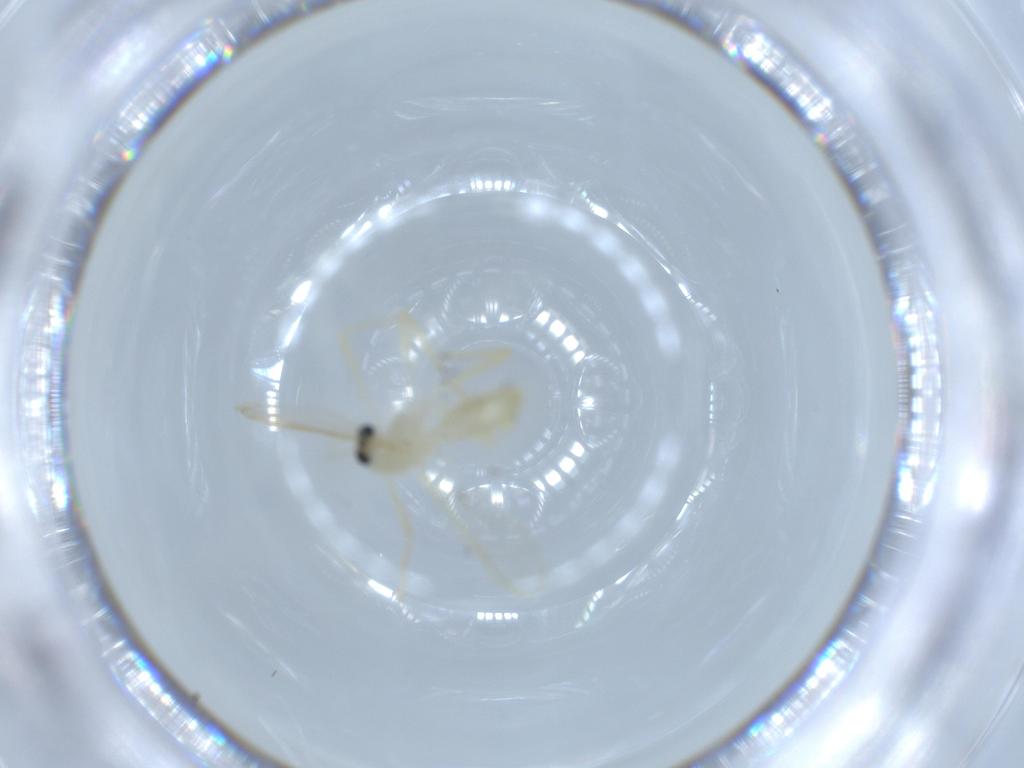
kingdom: Animalia
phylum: Arthropoda
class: Insecta
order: Diptera
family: Chironomidae
